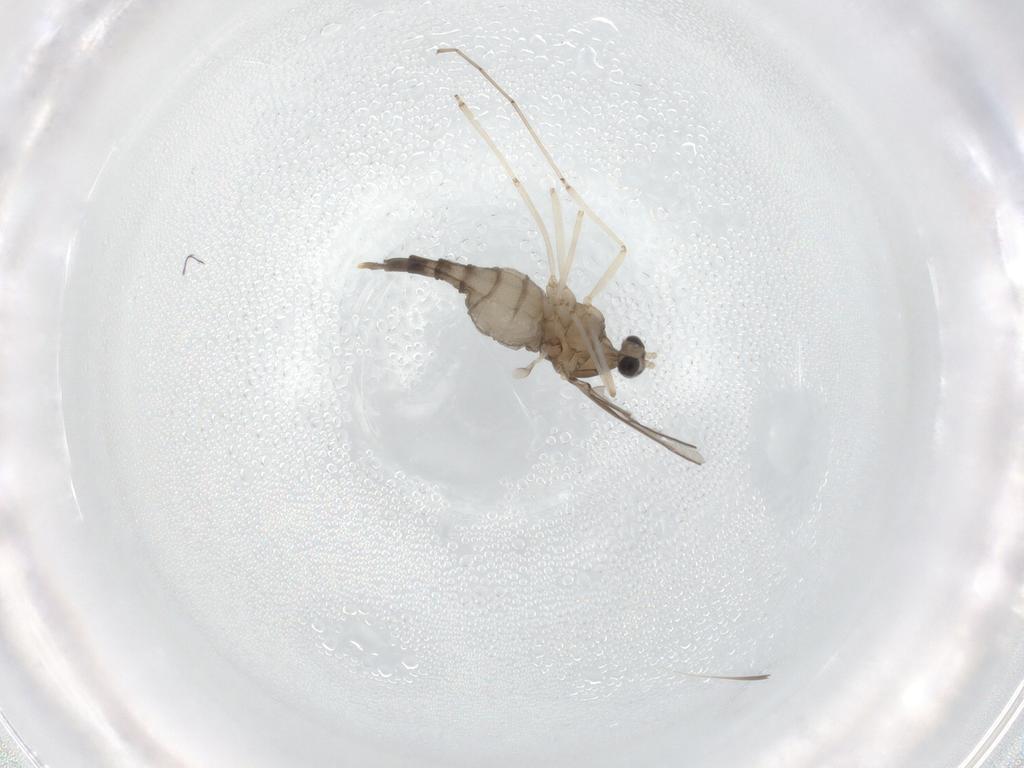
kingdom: Animalia
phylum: Arthropoda
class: Insecta
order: Diptera
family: Cecidomyiidae
